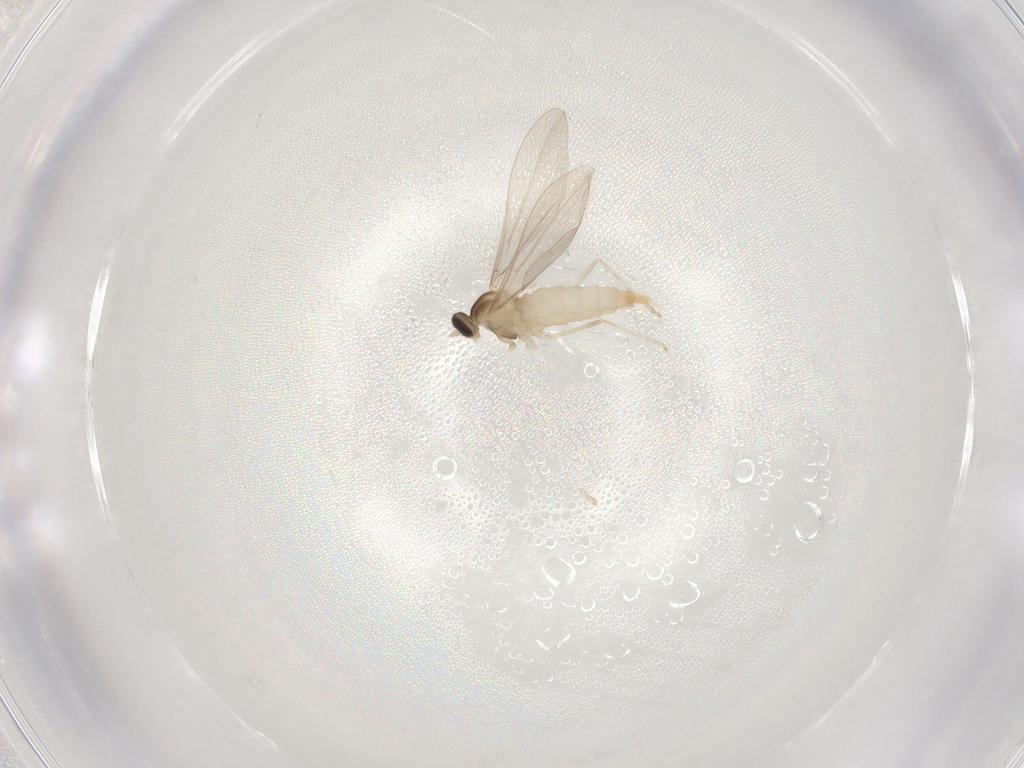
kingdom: Animalia
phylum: Arthropoda
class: Insecta
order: Diptera
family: Cecidomyiidae
